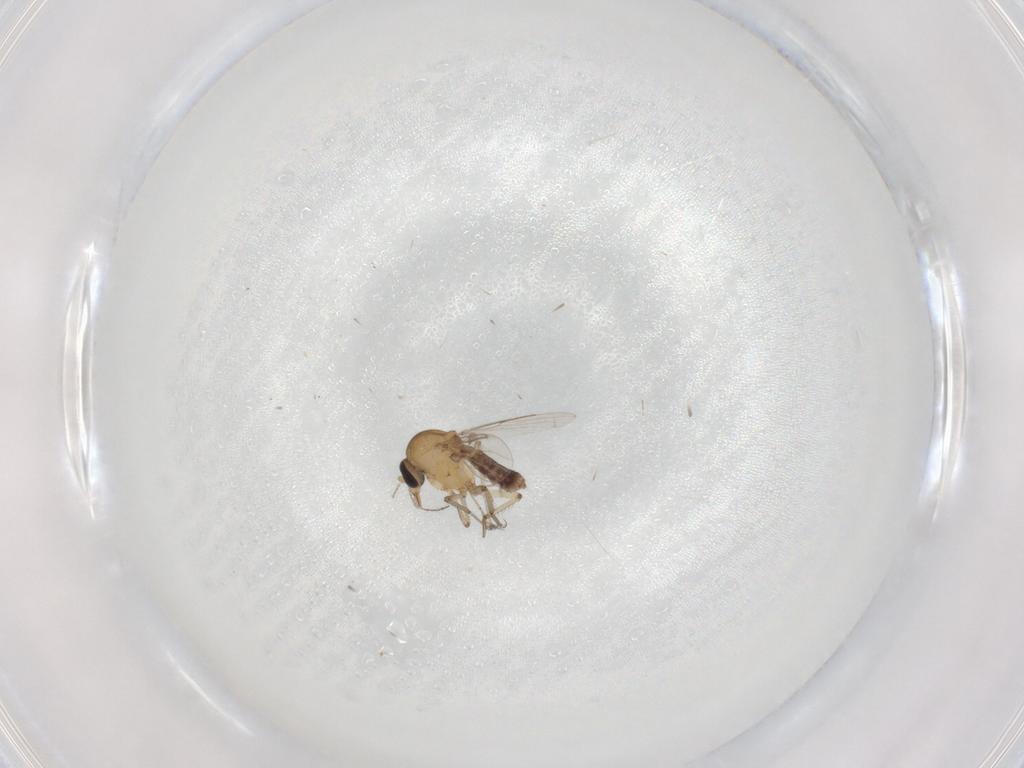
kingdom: Animalia
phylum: Arthropoda
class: Insecta
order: Diptera
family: Ceratopogonidae
